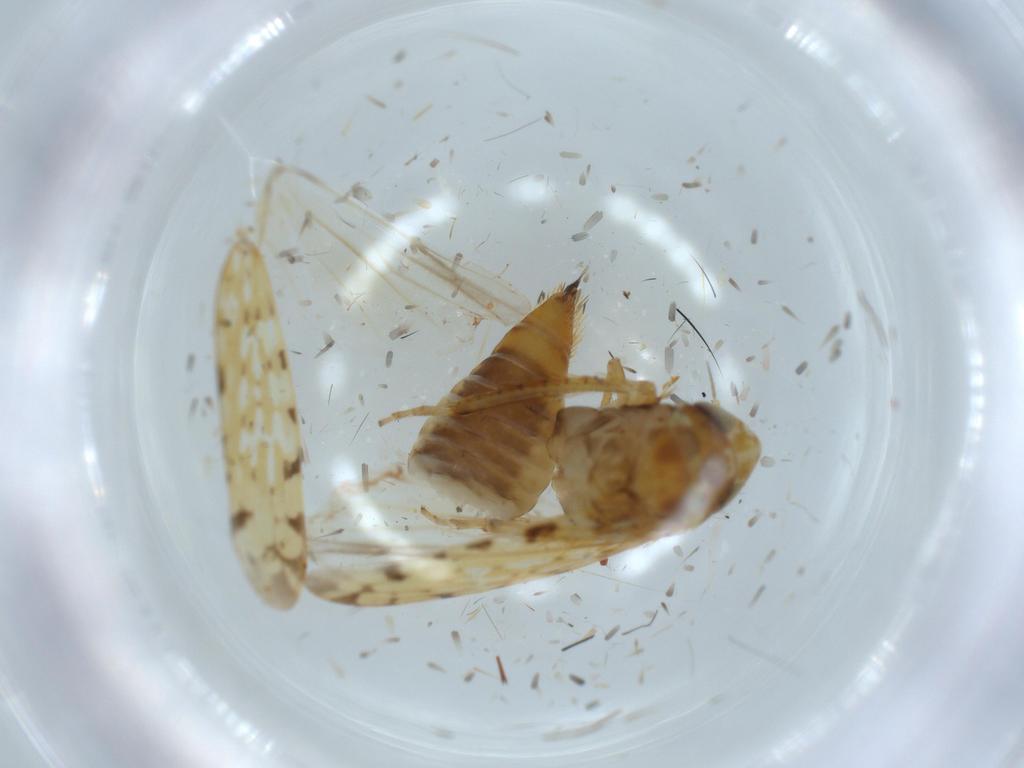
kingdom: Animalia
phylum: Arthropoda
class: Insecta
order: Hemiptera
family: Cicadellidae
